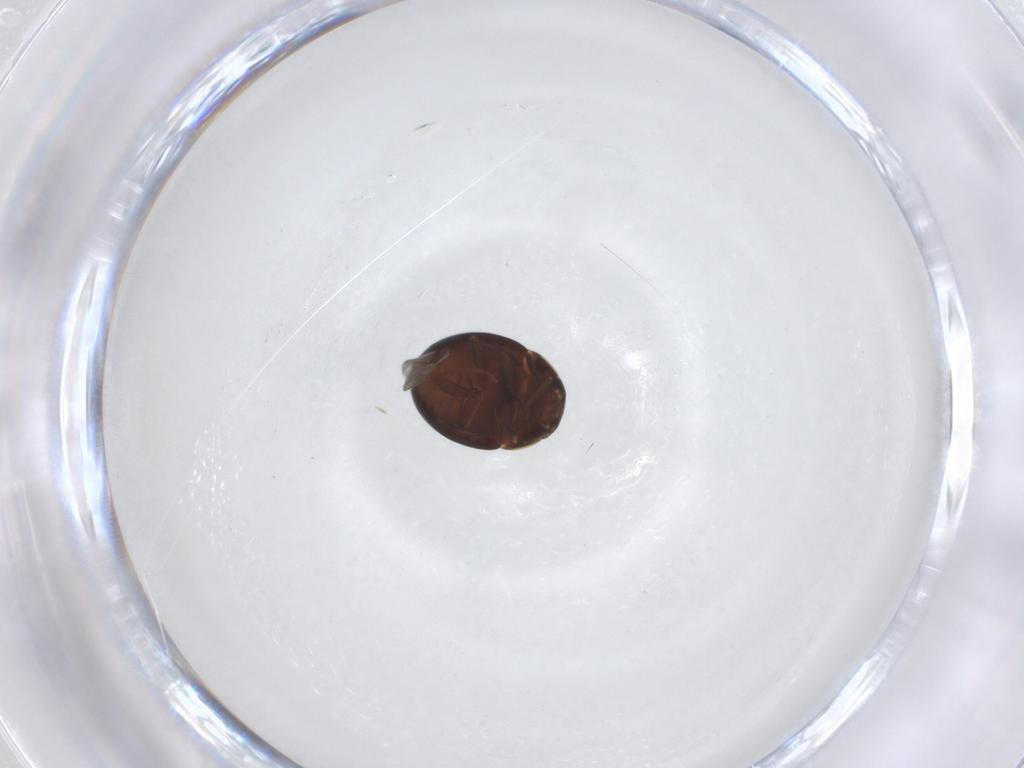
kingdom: Animalia
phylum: Arthropoda
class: Insecta
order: Coleoptera
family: Leiodidae
